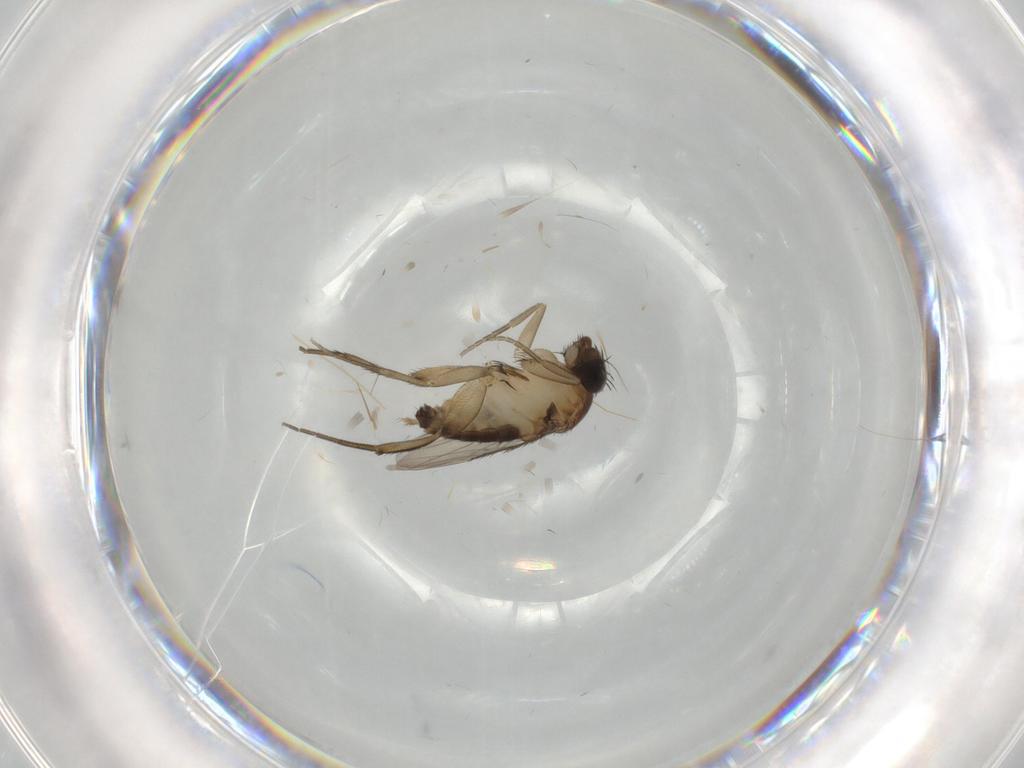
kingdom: Animalia
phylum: Arthropoda
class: Insecta
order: Diptera
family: Phoridae
